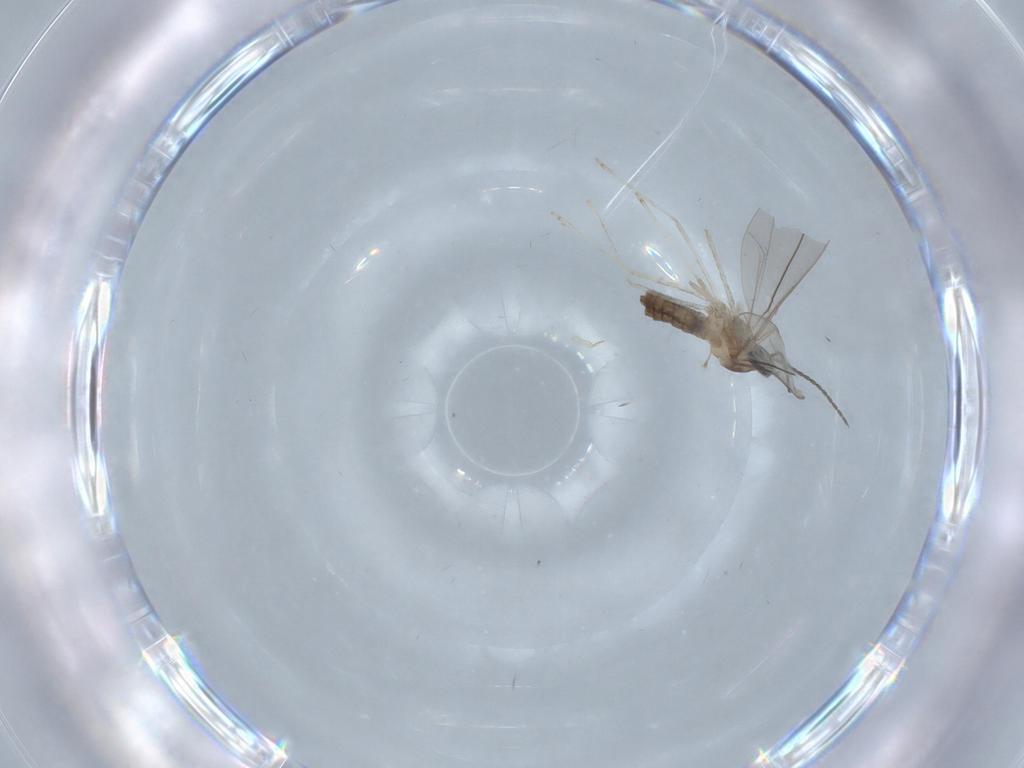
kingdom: Animalia
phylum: Arthropoda
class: Insecta
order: Diptera
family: Cecidomyiidae
